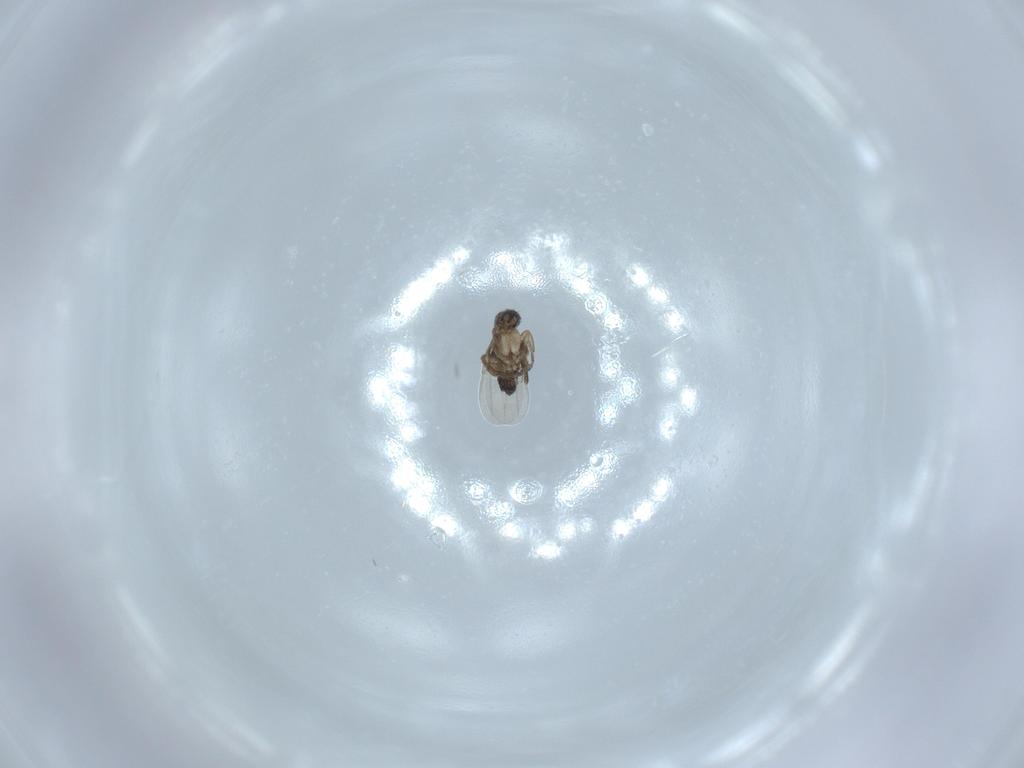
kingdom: Animalia
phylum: Arthropoda
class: Insecta
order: Diptera
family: Phoridae
